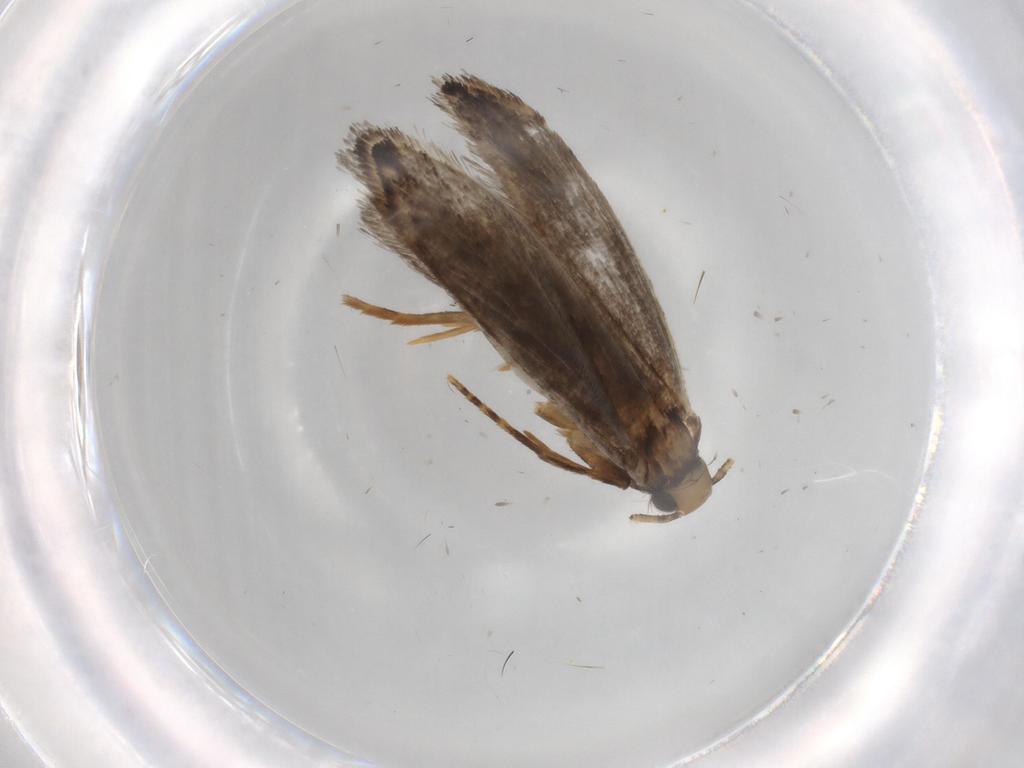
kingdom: Animalia
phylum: Arthropoda
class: Insecta
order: Lepidoptera
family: Tineidae
